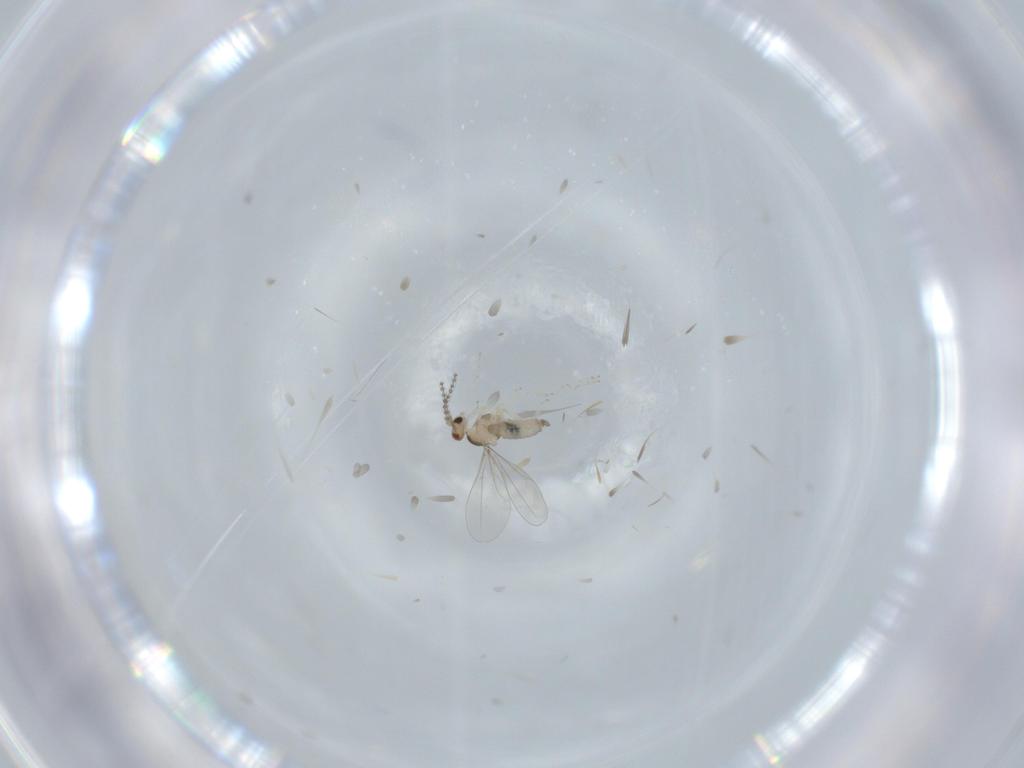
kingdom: Animalia
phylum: Arthropoda
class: Insecta
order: Diptera
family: Cecidomyiidae
